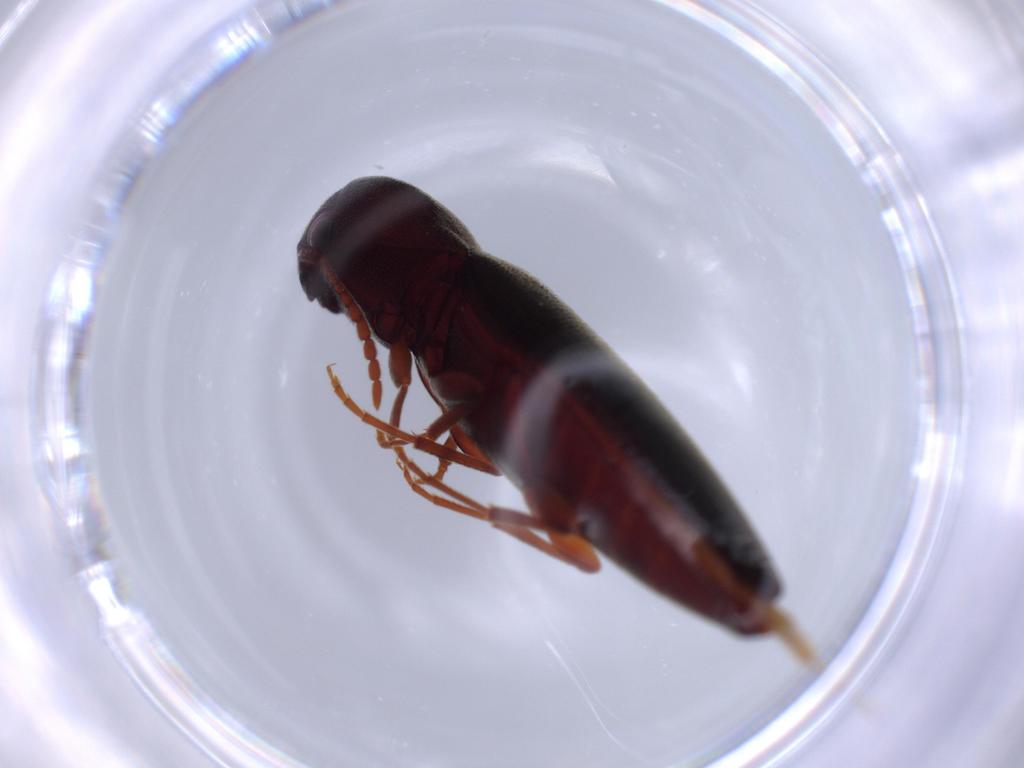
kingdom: Animalia
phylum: Arthropoda
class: Insecta
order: Coleoptera
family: Eucnemidae
